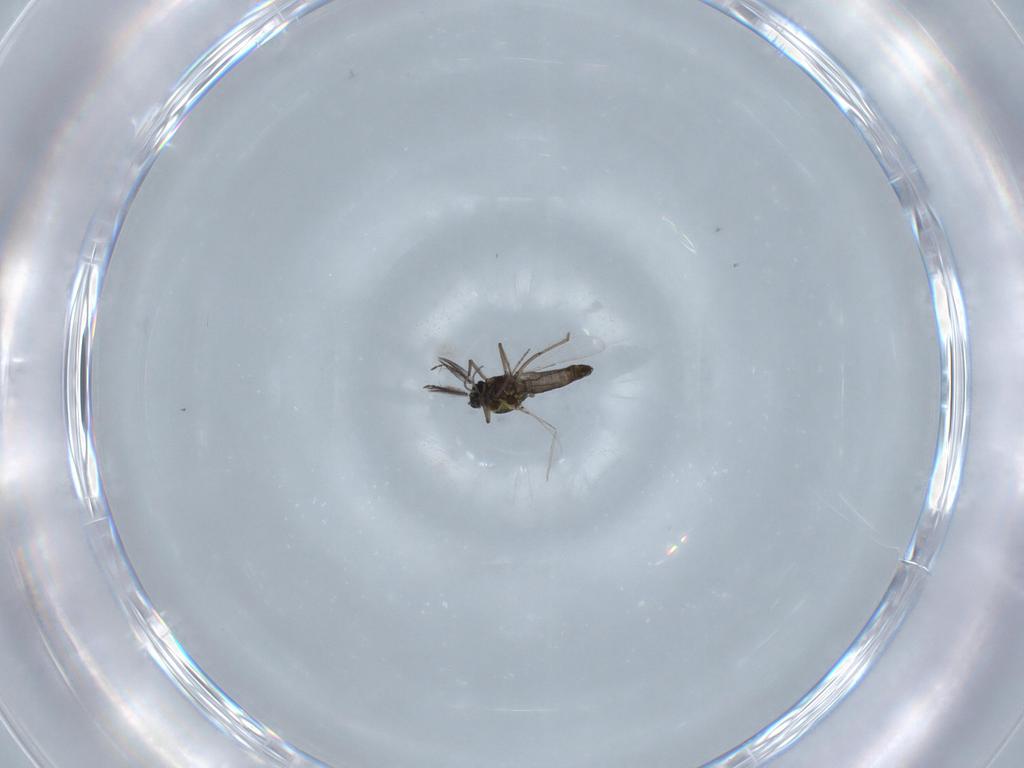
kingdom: Animalia
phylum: Arthropoda
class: Insecta
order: Diptera
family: Ceratopogonidae
